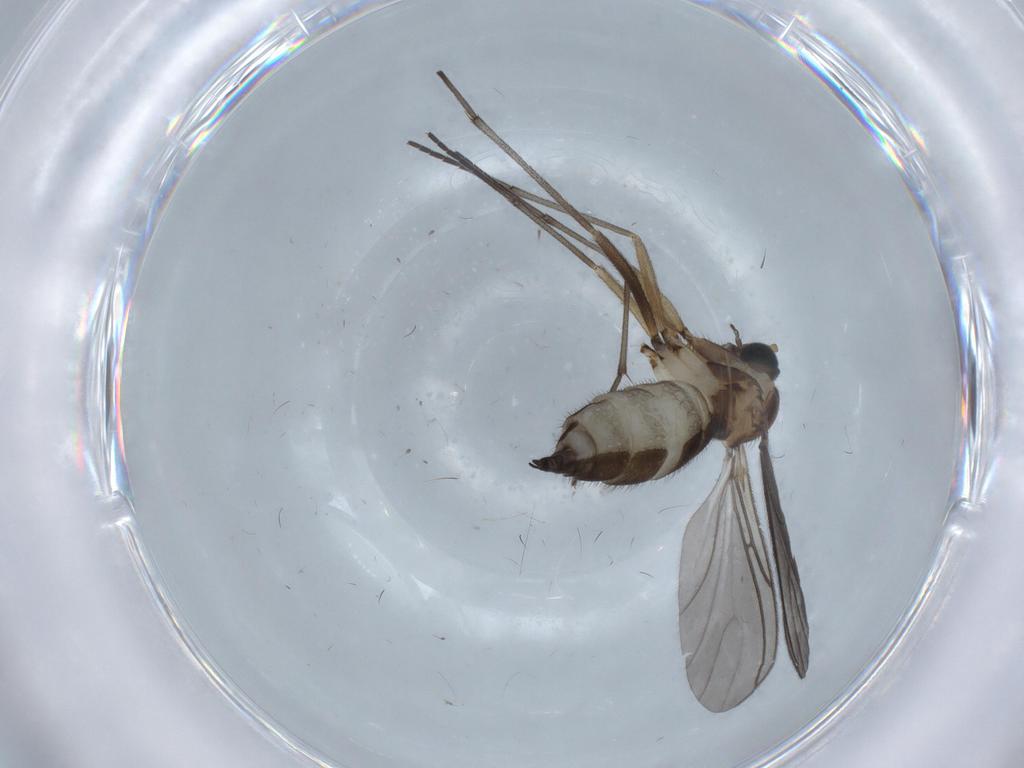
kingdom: Animalia
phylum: Arthropoda
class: Insecta
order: Diptera
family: Sciaridae
